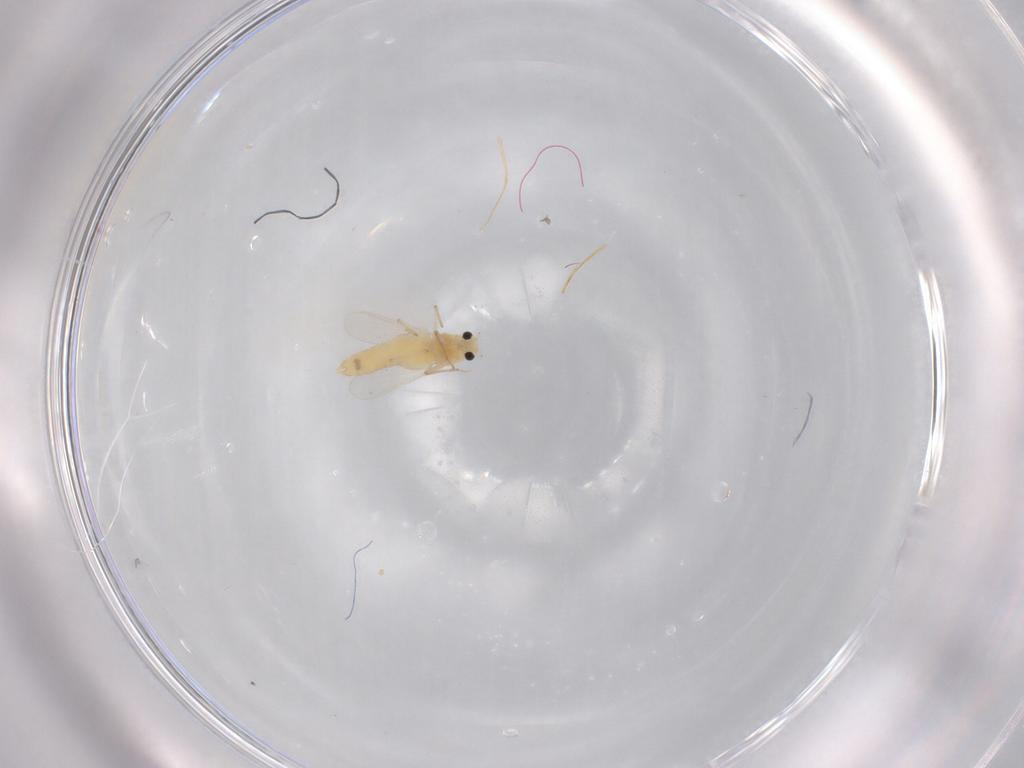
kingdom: Animalia
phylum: Arthropoda
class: Insecta
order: Diptera
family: Chironomidae
